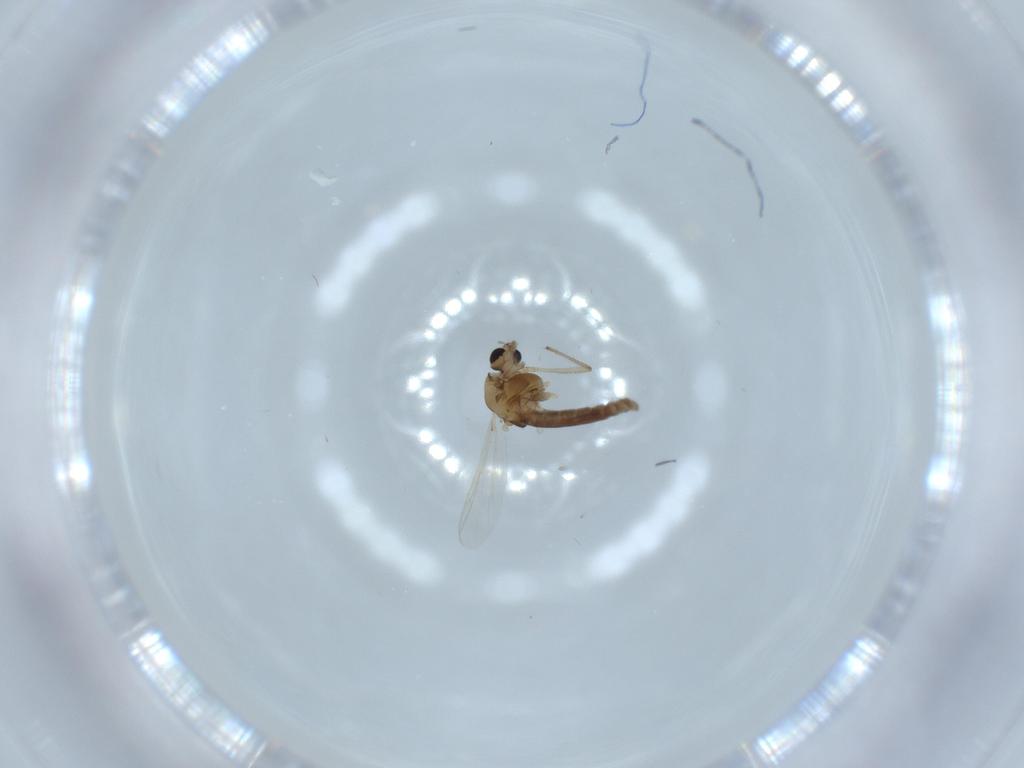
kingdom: Animalia
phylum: Arthropoda
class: Insecta
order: Diptera
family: Chironomidae
